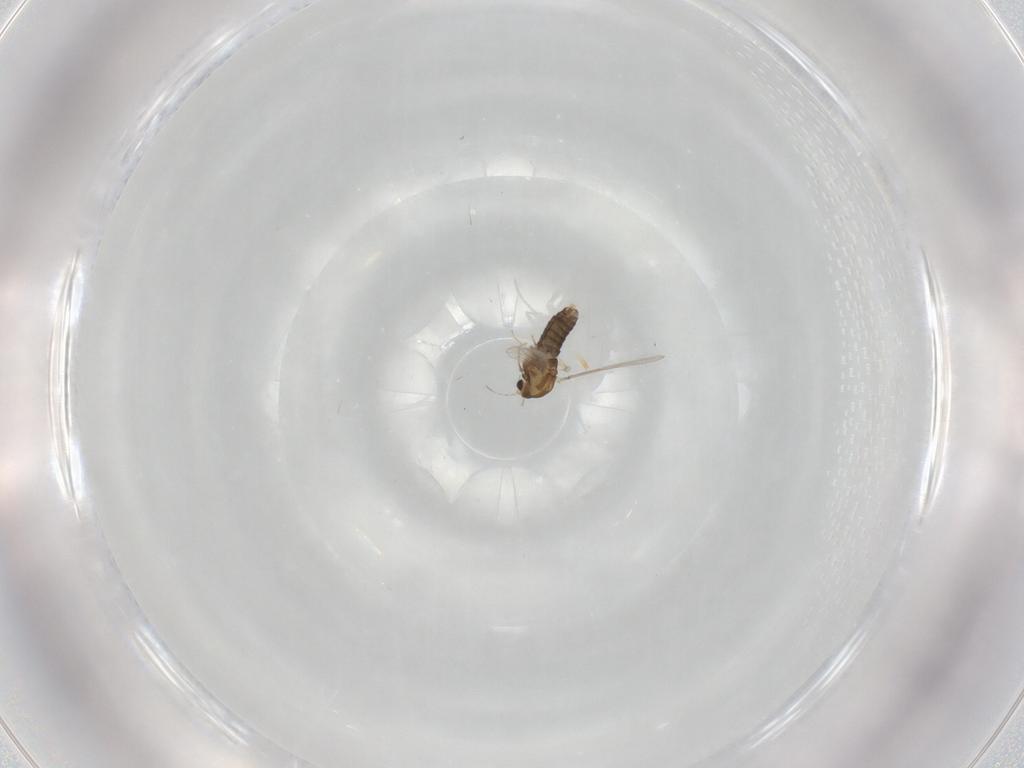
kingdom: Animalia
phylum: Arthropoda
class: Insecta
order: Diptera
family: Chironomidae
